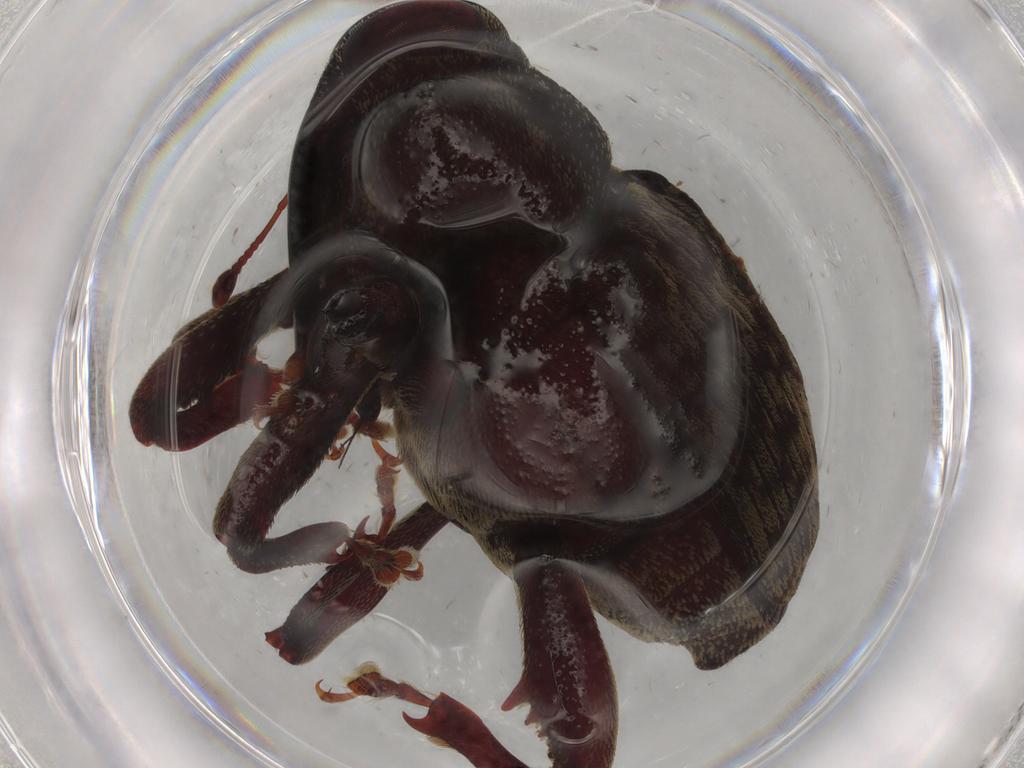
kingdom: Animalia
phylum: Arthropoda
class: Insecta
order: Coleoptera
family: Curculionidae
